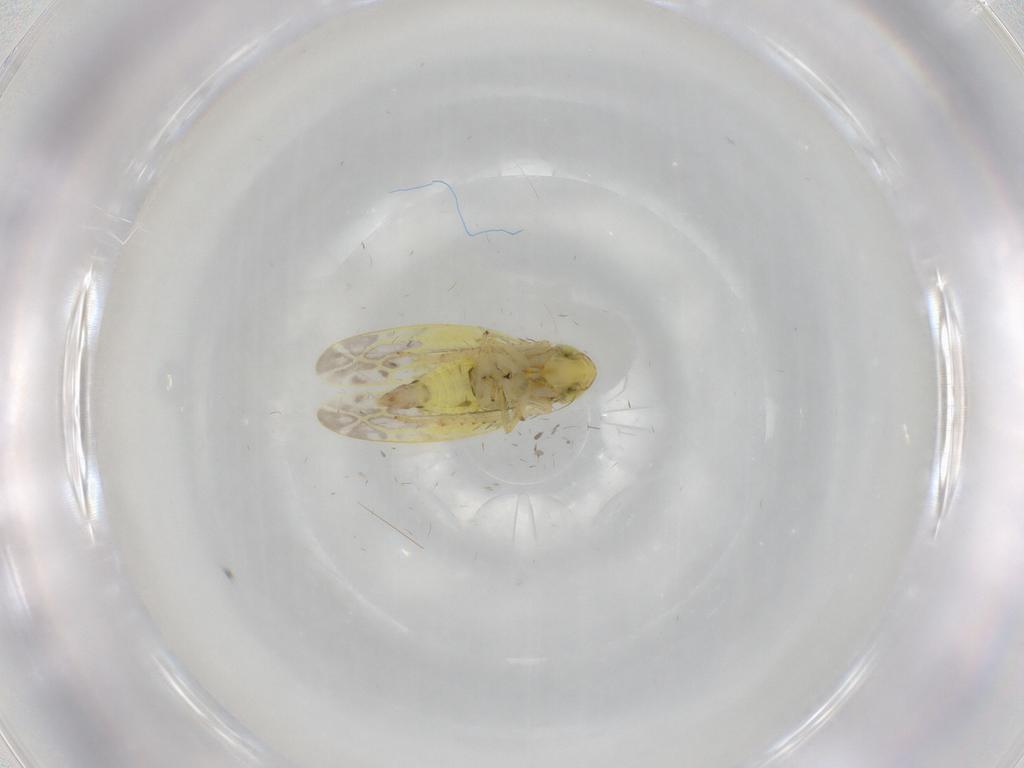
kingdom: Animalia
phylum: Arthropoda
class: Insecta
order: Hemiptera
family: Cicadellidae
